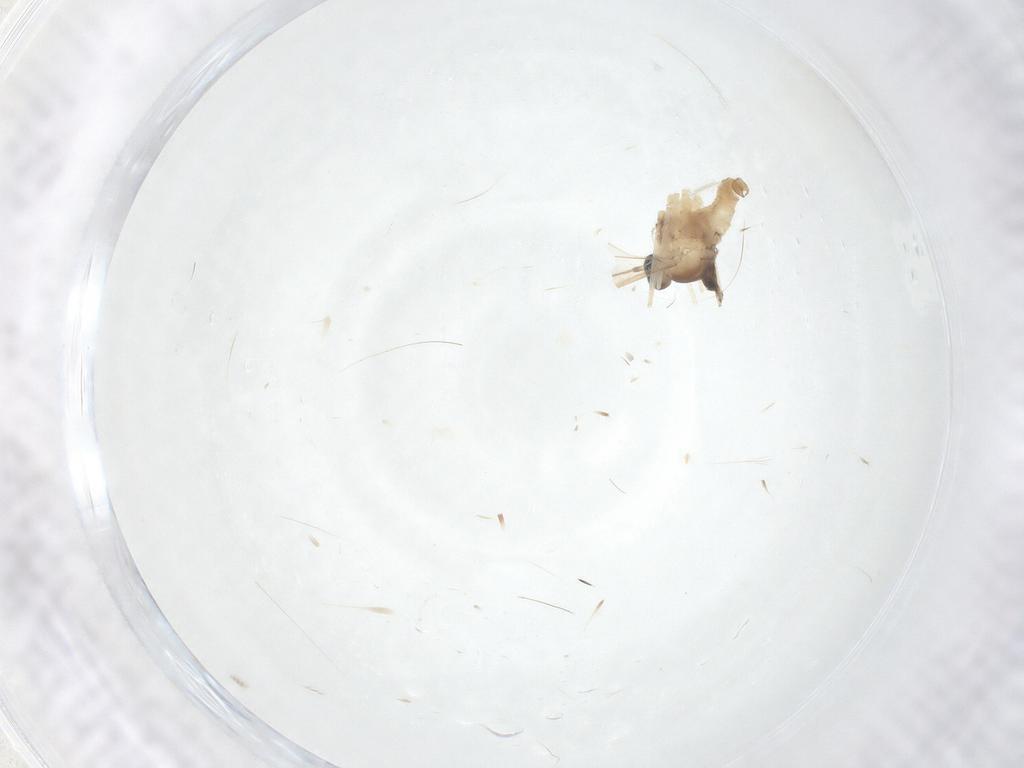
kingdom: Animalia
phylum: Arthropoda
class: Insecta
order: Diptera
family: Cecidomyiidae
